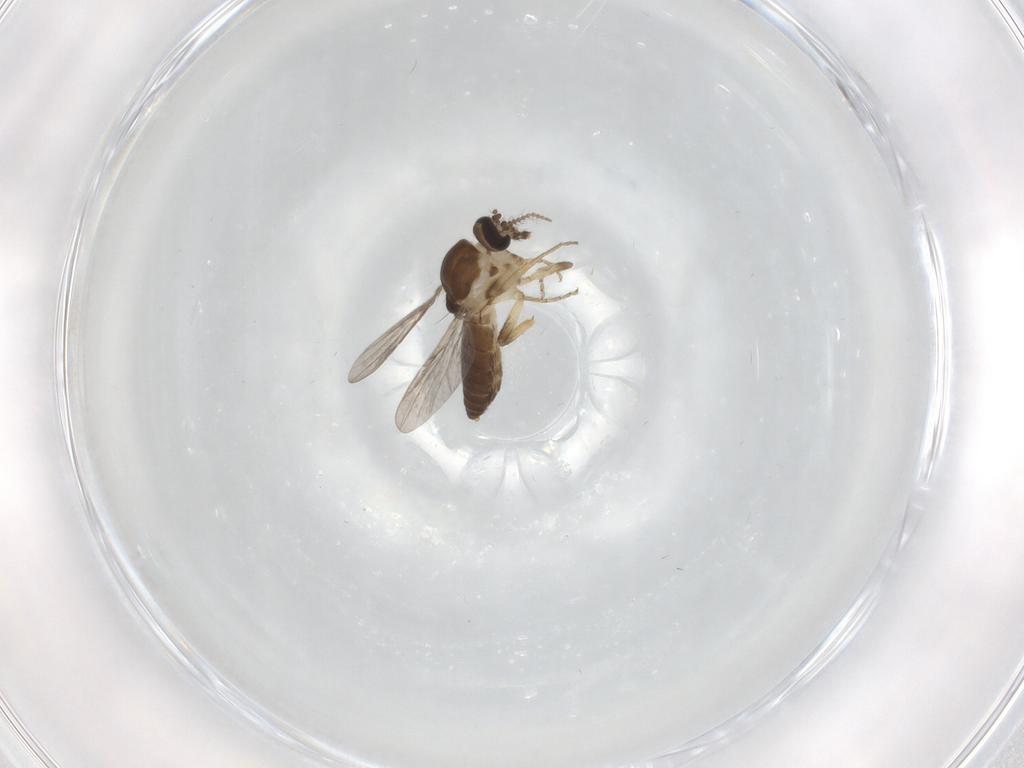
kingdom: Animalia
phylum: Arthropoda
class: Insecta
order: Diptera
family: Ceratopogonidae
